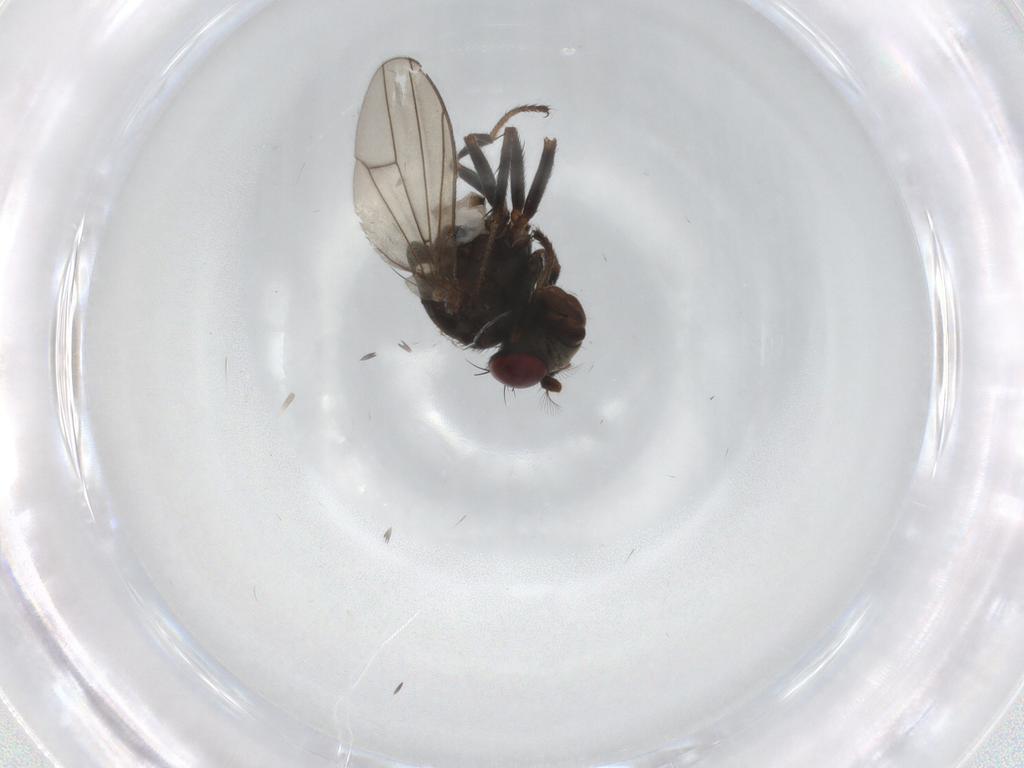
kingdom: Animalia
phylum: Arthropoda
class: Insecta
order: Diptera
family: Ephydridae
